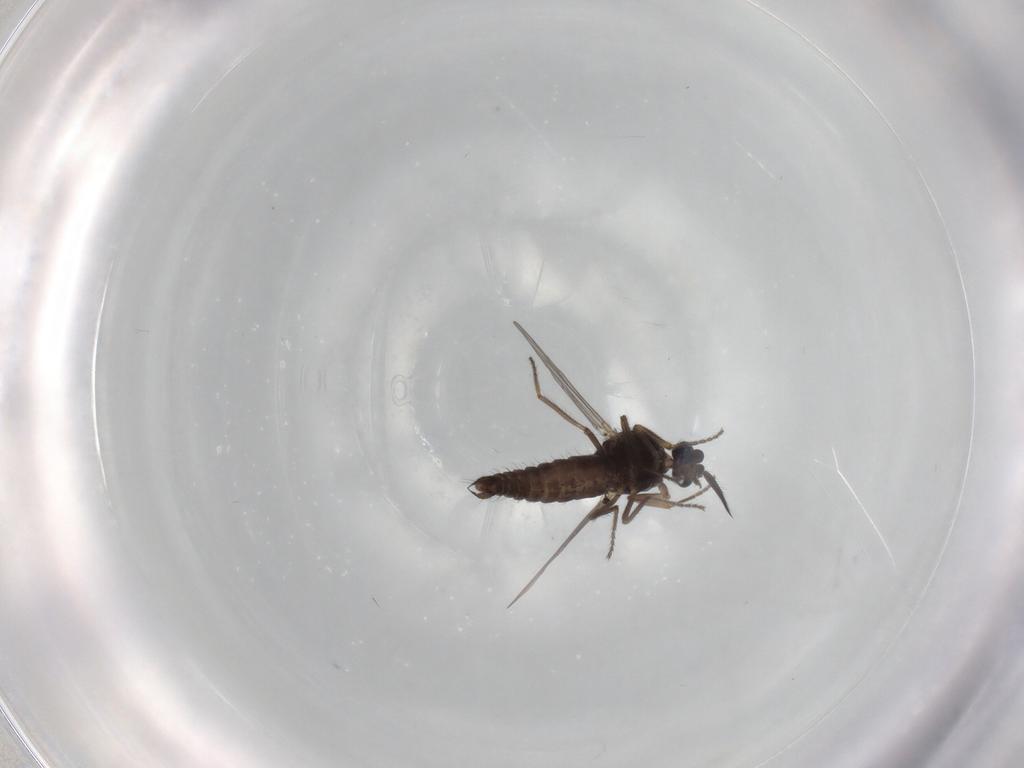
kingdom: Animalia
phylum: Arthropoda
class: Insecta
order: Diptera
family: Ceratopogonidae
